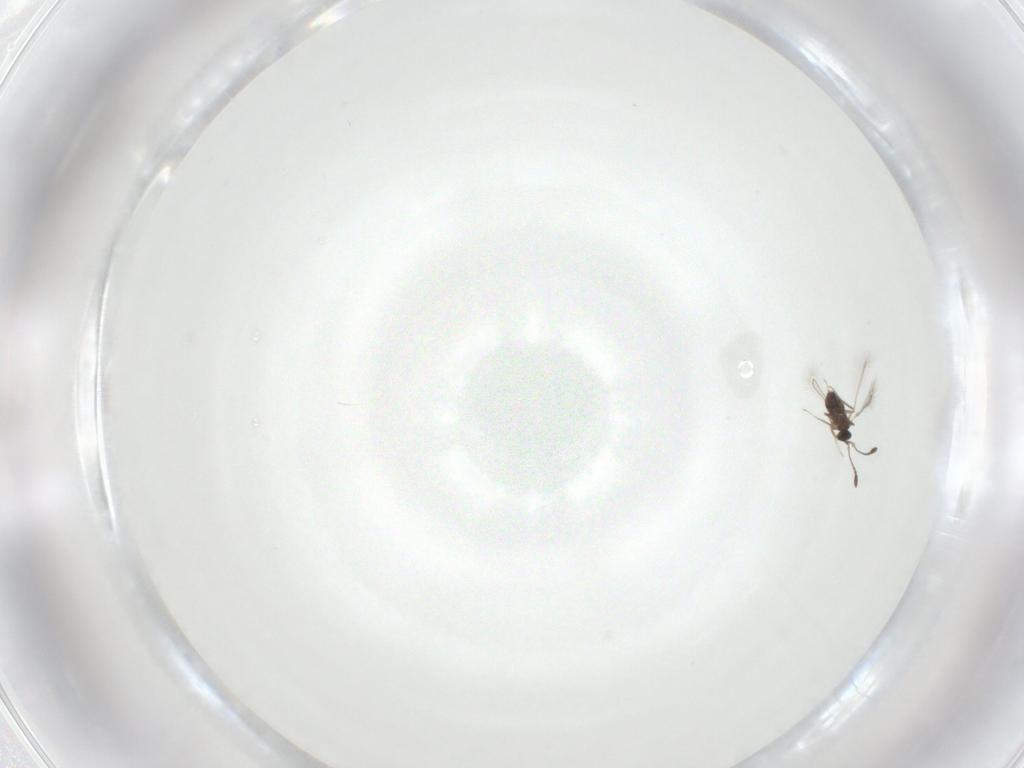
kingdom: Animalia
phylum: Arthropoda
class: Insecta
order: Hymenoptera
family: Mymaridae
